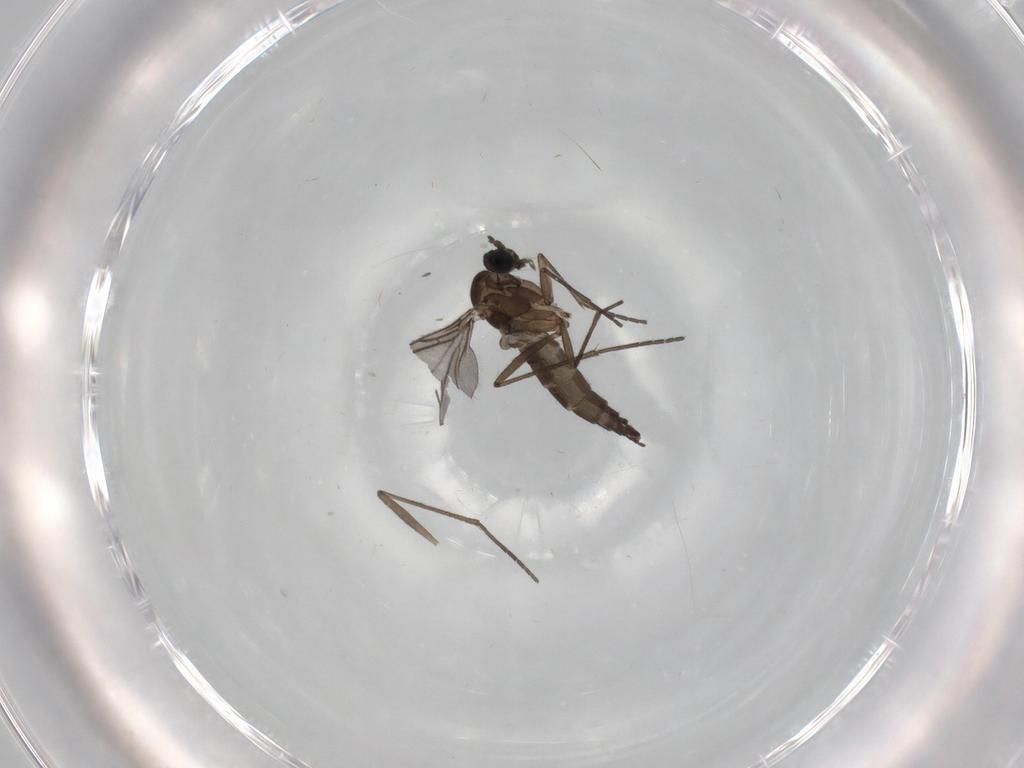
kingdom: Animalia
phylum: Arthropoda
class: Insecta
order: Diptera
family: Sciaridae
